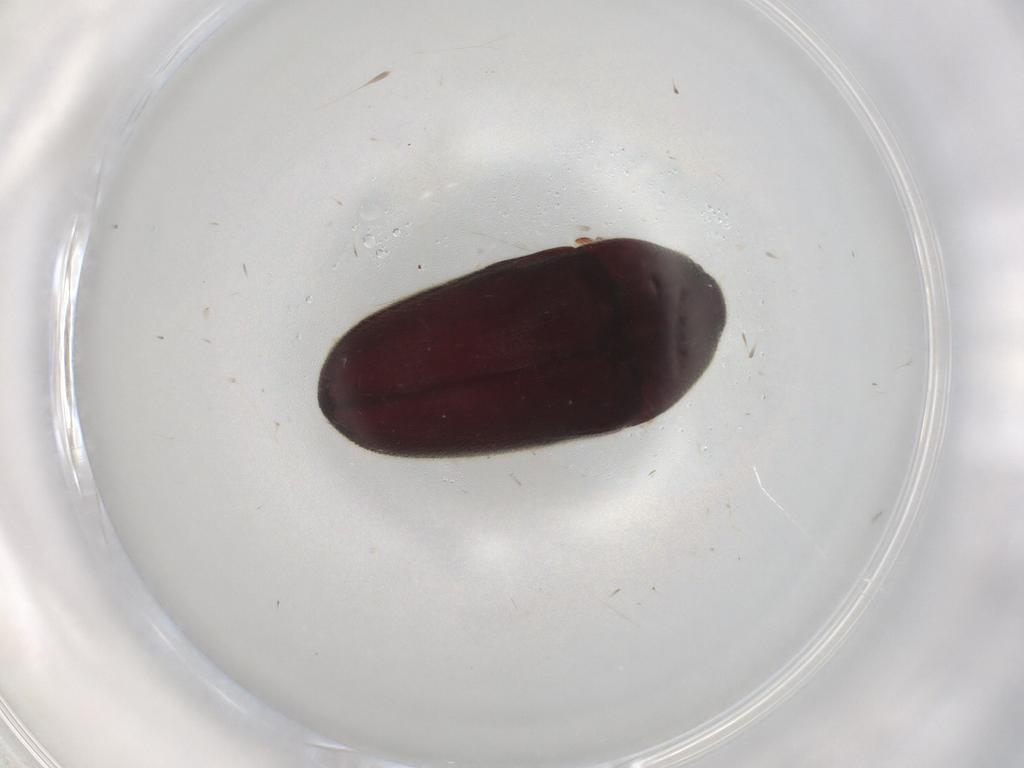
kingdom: Animalia
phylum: Arthropoda
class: Insecta
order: Coleoptera
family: Throscidae
